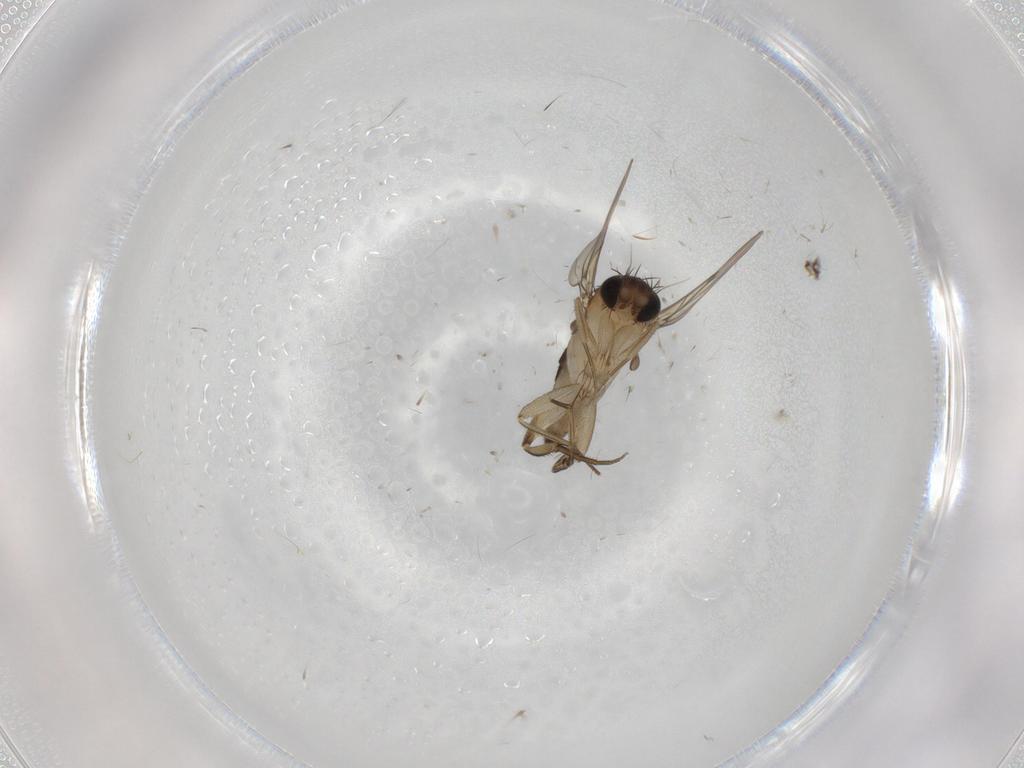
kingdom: Animalia
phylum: Arthropoda
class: Insecta
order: Diptera
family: Phoridae
